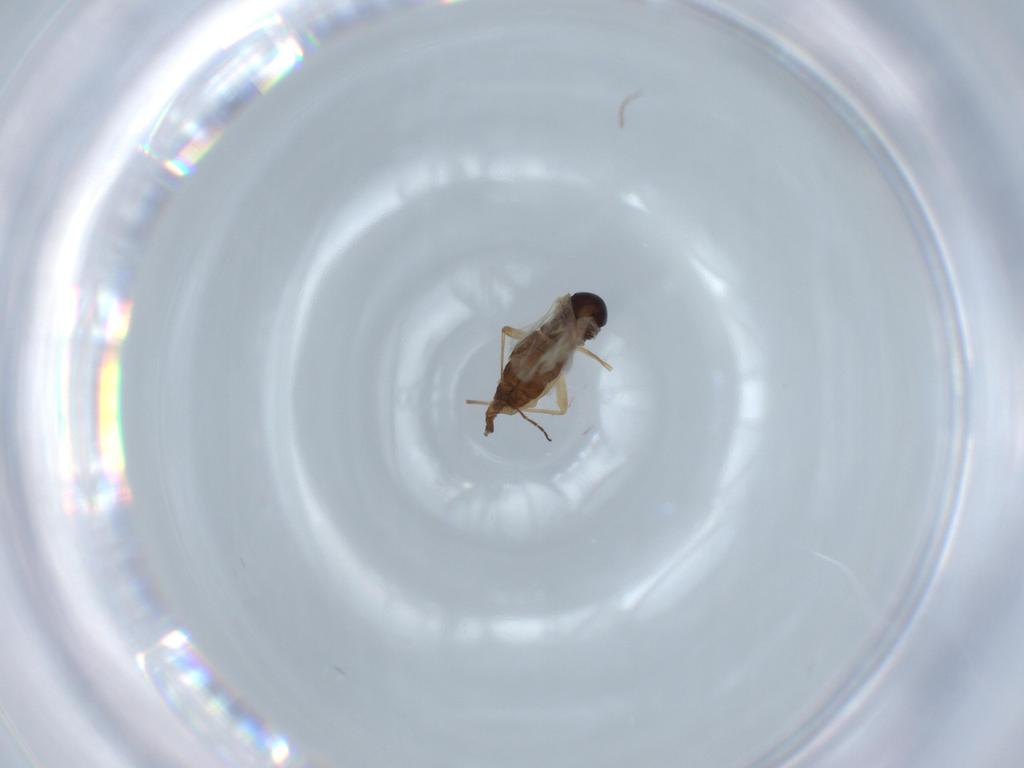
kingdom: Animalia
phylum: Arthropoda
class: Insecta
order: Diptera
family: Sciaridae
